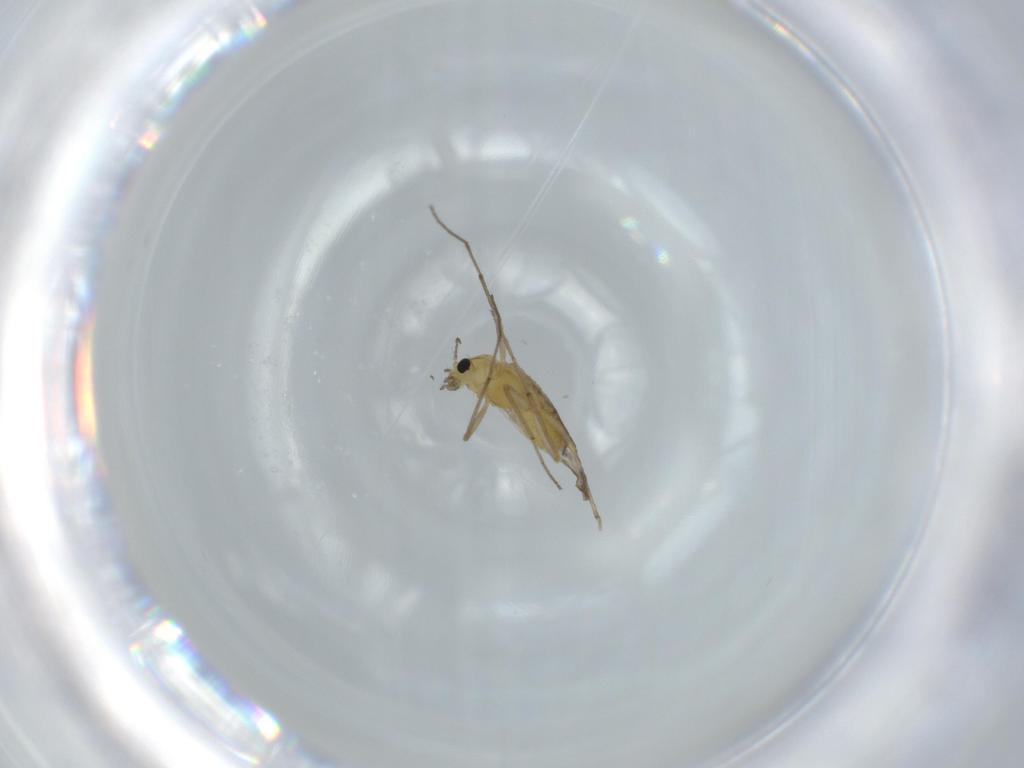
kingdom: Animalia
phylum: Arthropoda
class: Insecta
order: Diptera
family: Chironomidae
